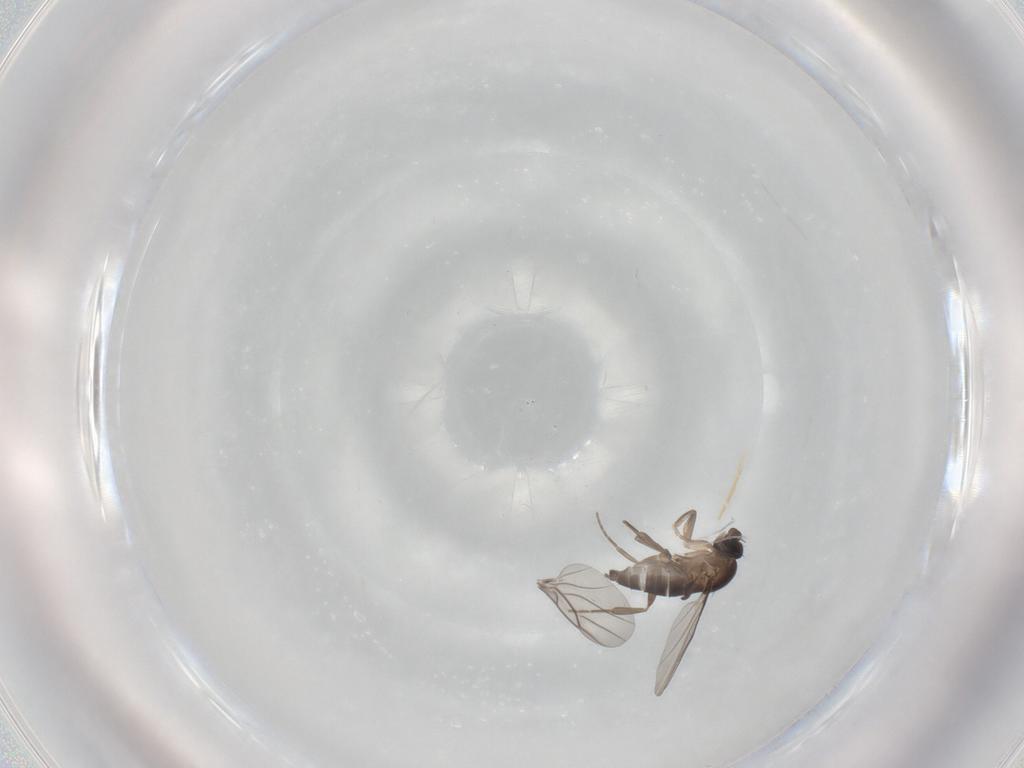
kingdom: Animalia
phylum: Arthropoda
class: Insecta
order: Diptera
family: Phoridae
